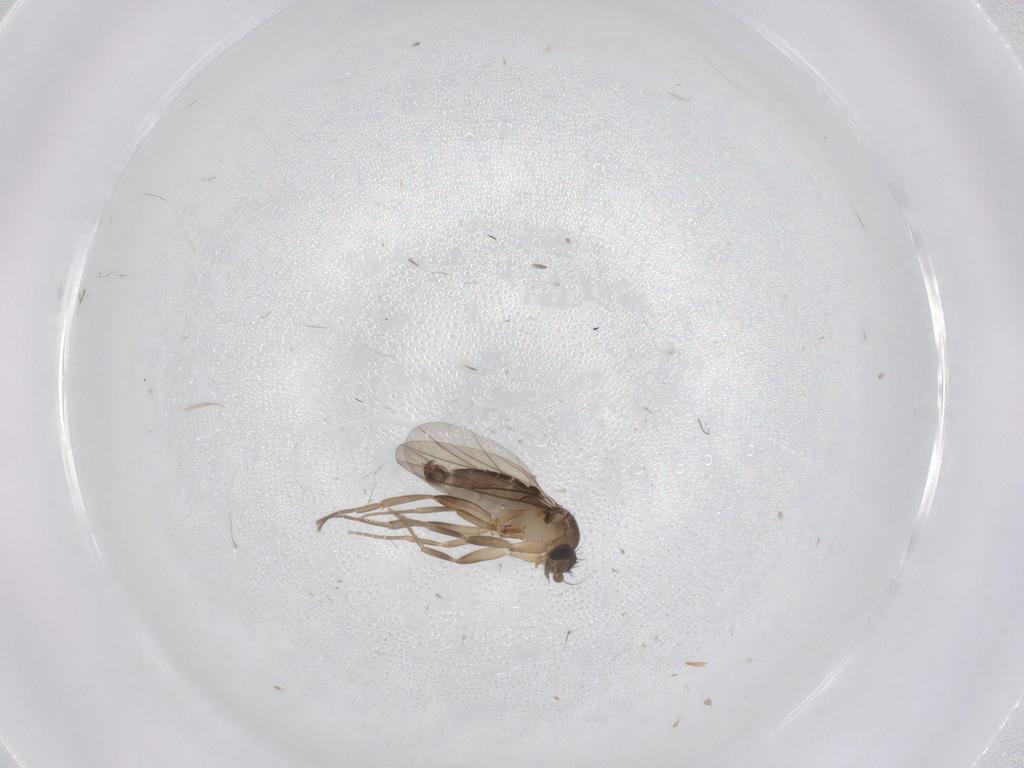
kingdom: Animalia
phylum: Arthropoda
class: Insecta
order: Diptera
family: Phoridae
